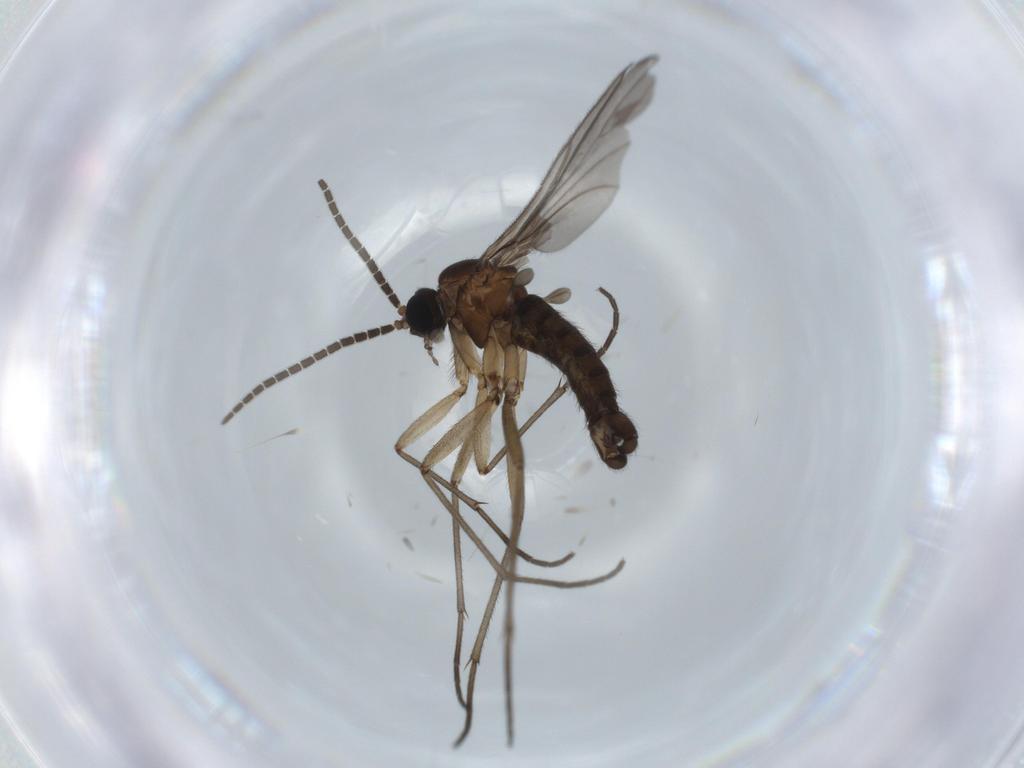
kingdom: Animalia
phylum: Arthropoda
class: Insecta
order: Diptera
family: Sciaridae
